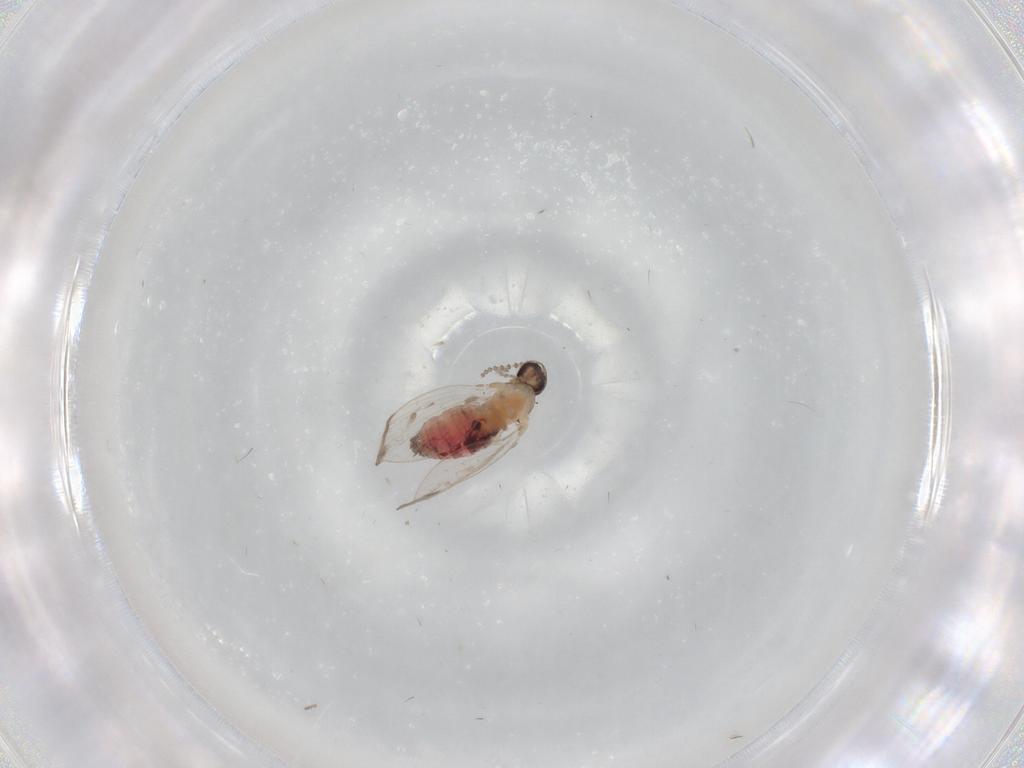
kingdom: Animalia
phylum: Arthropoda
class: Insecta
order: Diptera
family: Psychodidae
